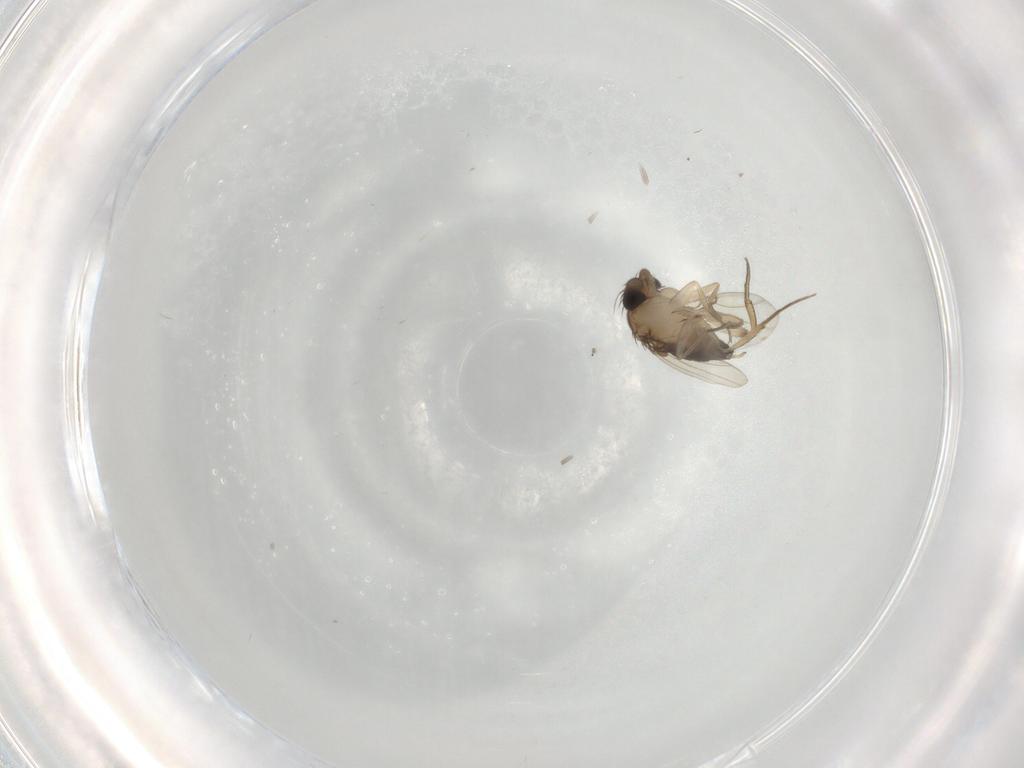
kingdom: Animalia
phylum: Arthropoda
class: Insecta
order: Diptera
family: Phoridae
